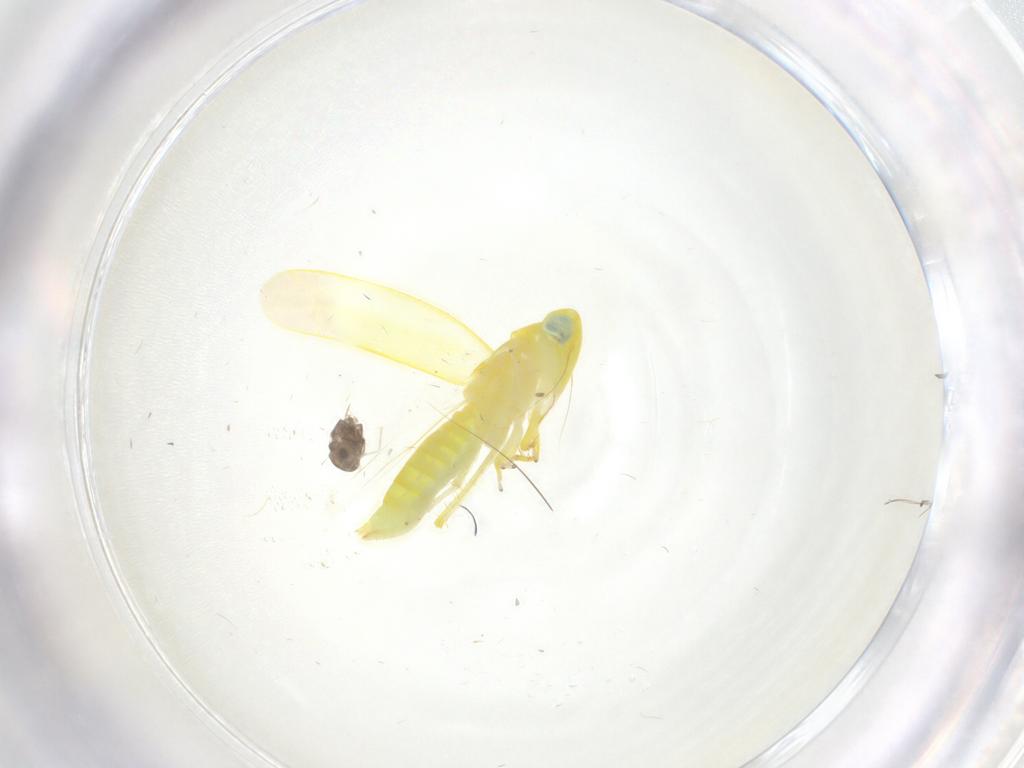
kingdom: Animalia
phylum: Arthropoda
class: Insecta
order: Hemiptera
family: Cicadellidae
